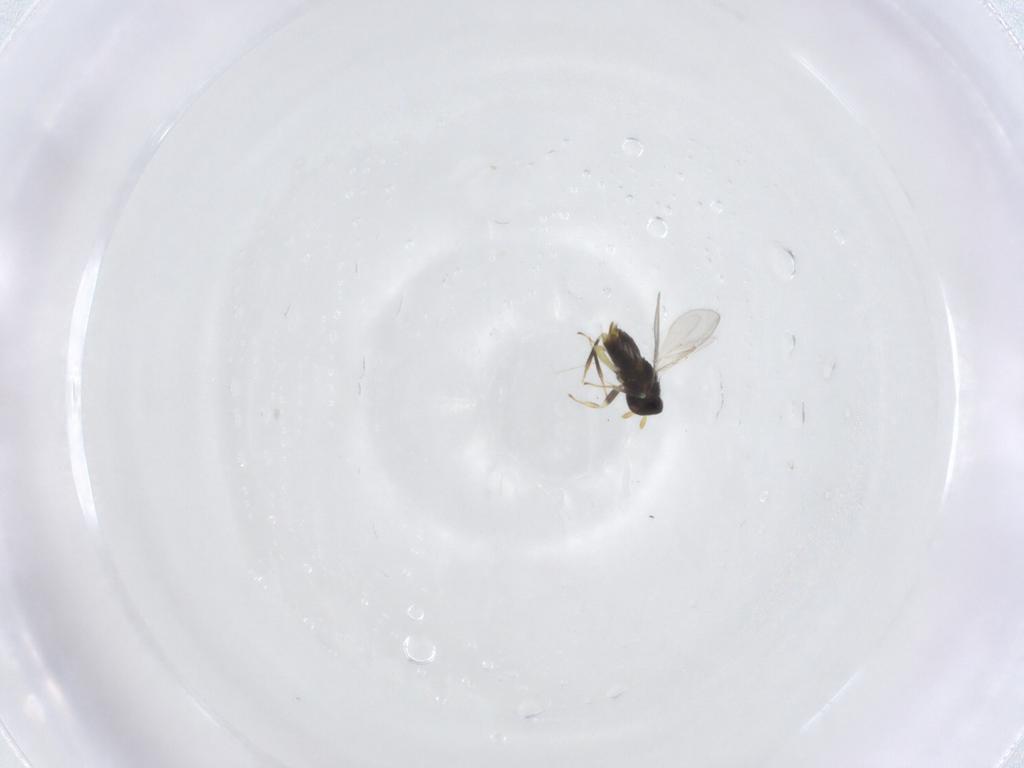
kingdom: Animalia
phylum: Arthropoda
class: Insecta
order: Hymenoptera
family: Aphelinidae
